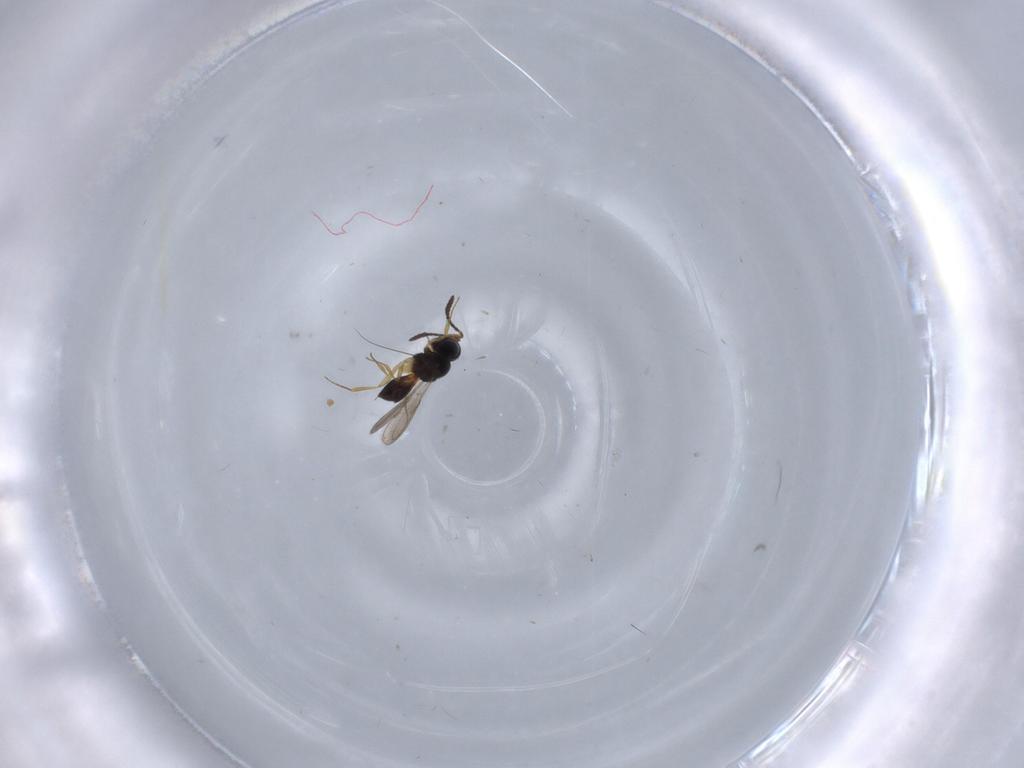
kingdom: Animalia
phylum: Arthropoda
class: Insecta
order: Hymenoptera
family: Scelionidae
